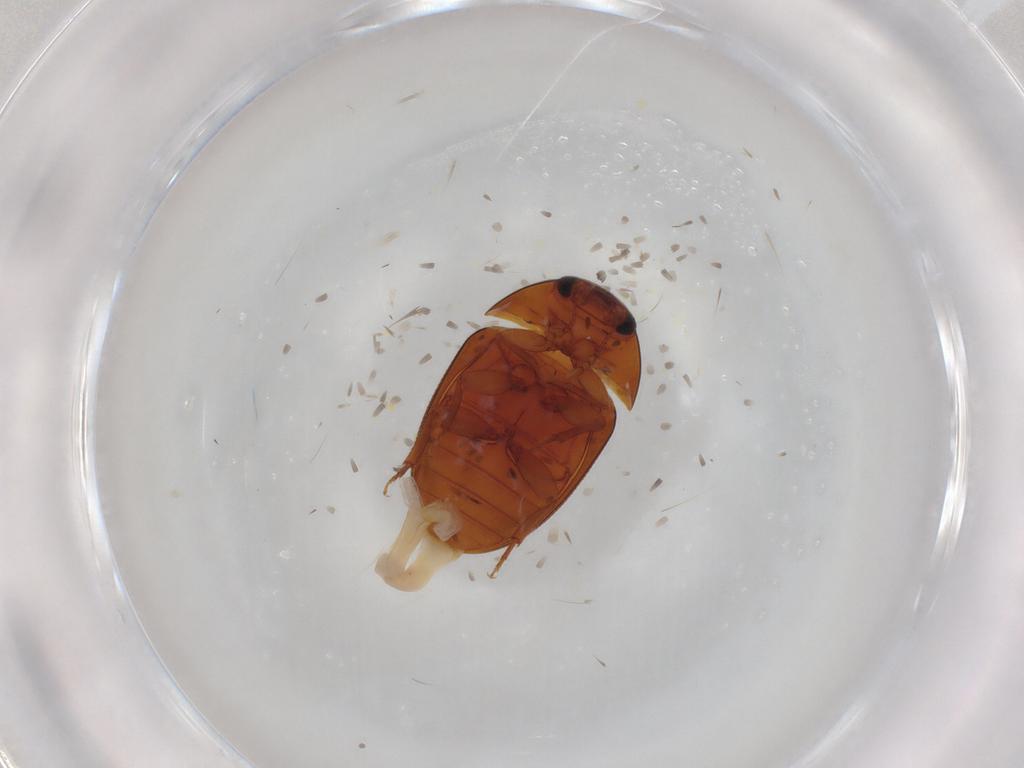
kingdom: Animalia
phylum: Arthropoda
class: Insecta
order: Coleoptera
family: Phalacridae
